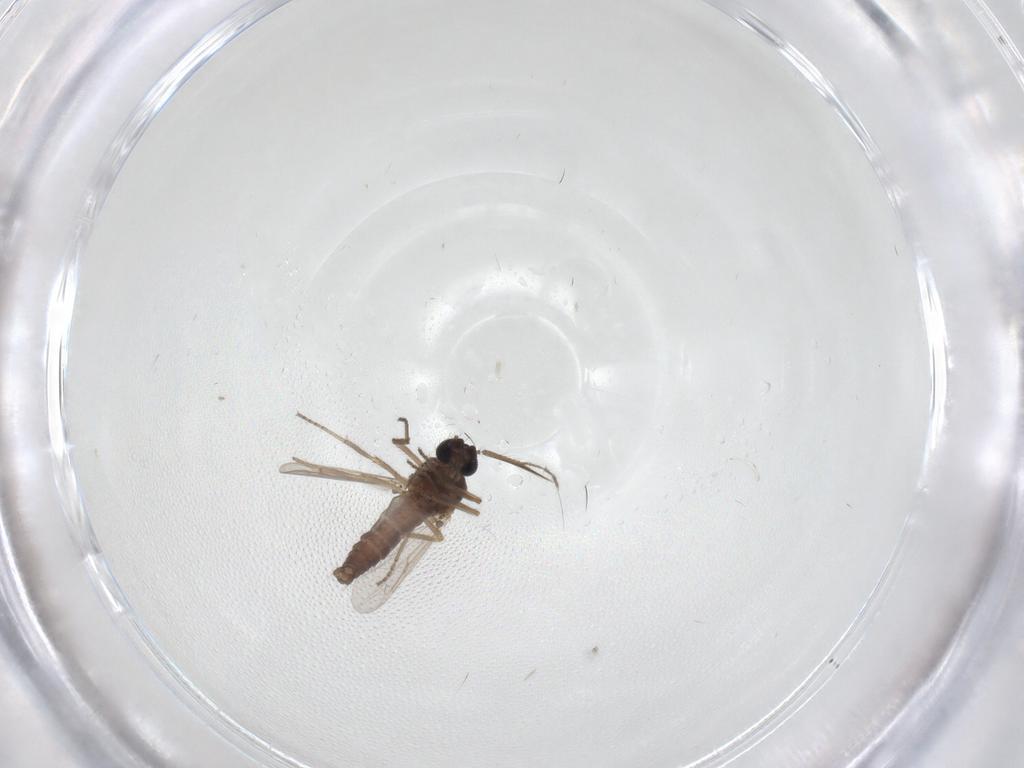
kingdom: Animalia
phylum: Arthropoda
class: Insecta
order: Diptera
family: Ceratopogonidae
